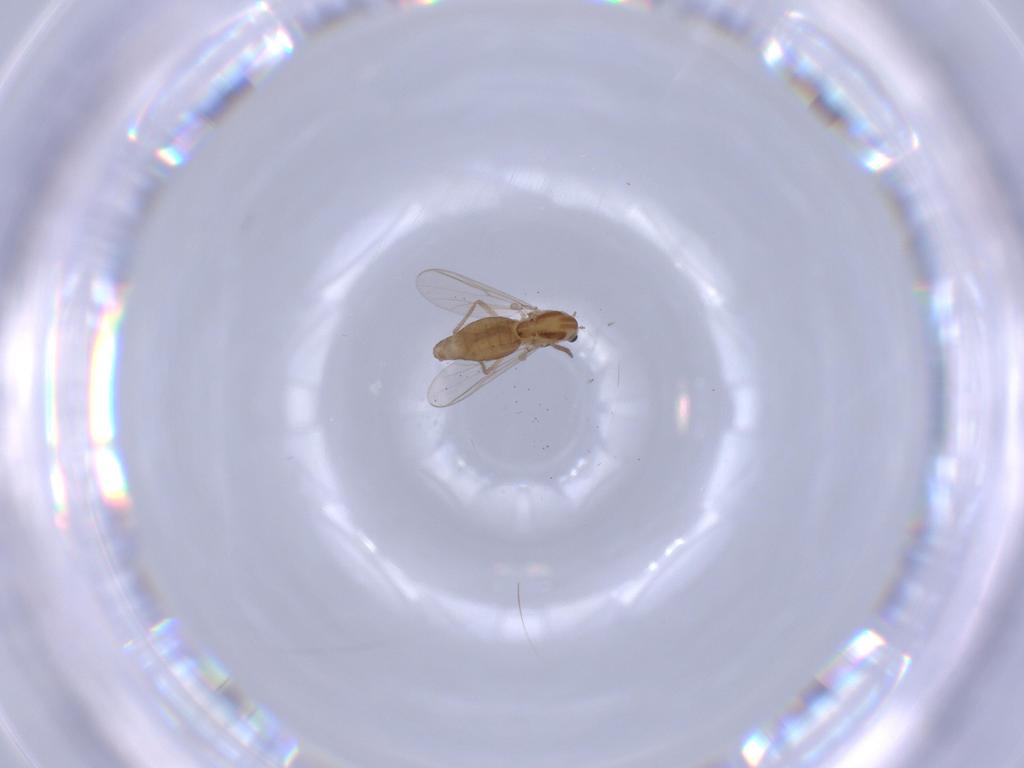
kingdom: Animalia
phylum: Arthropoda
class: Insecta
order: Diptera
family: Chironomidae
